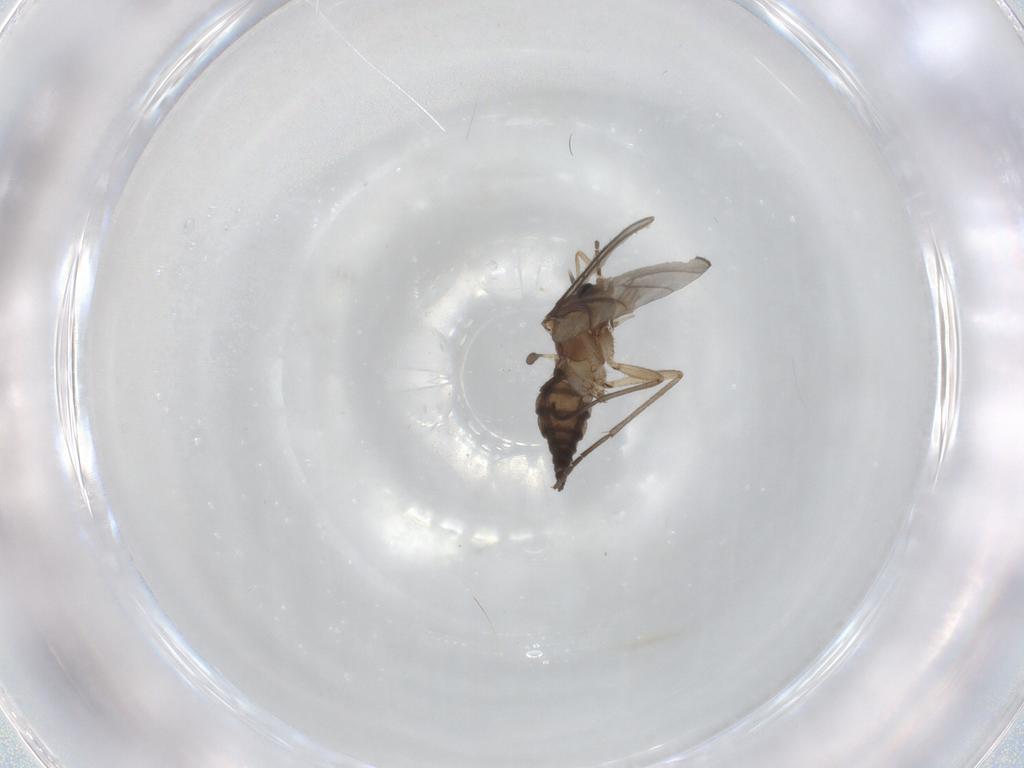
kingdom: Animalia
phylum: Arthropoda
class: Insecta
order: Diptera
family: Sciaridae
